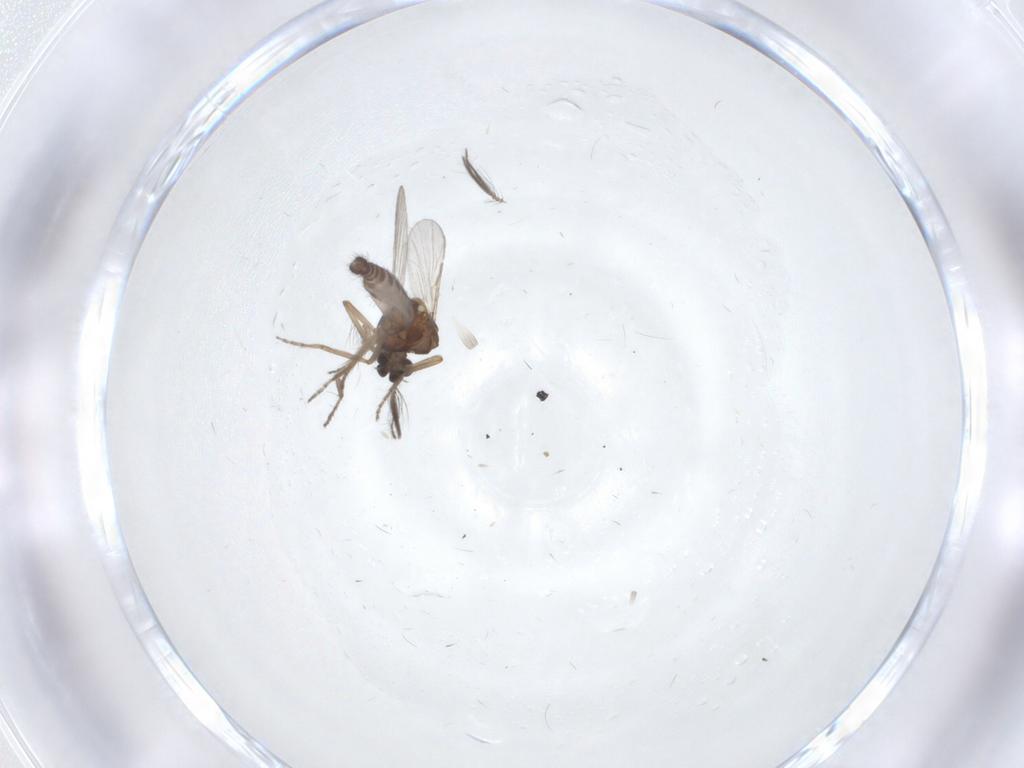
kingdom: Animalia
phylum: Arthropoda
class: Insecta
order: Diptera
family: Ceratopogonidae
